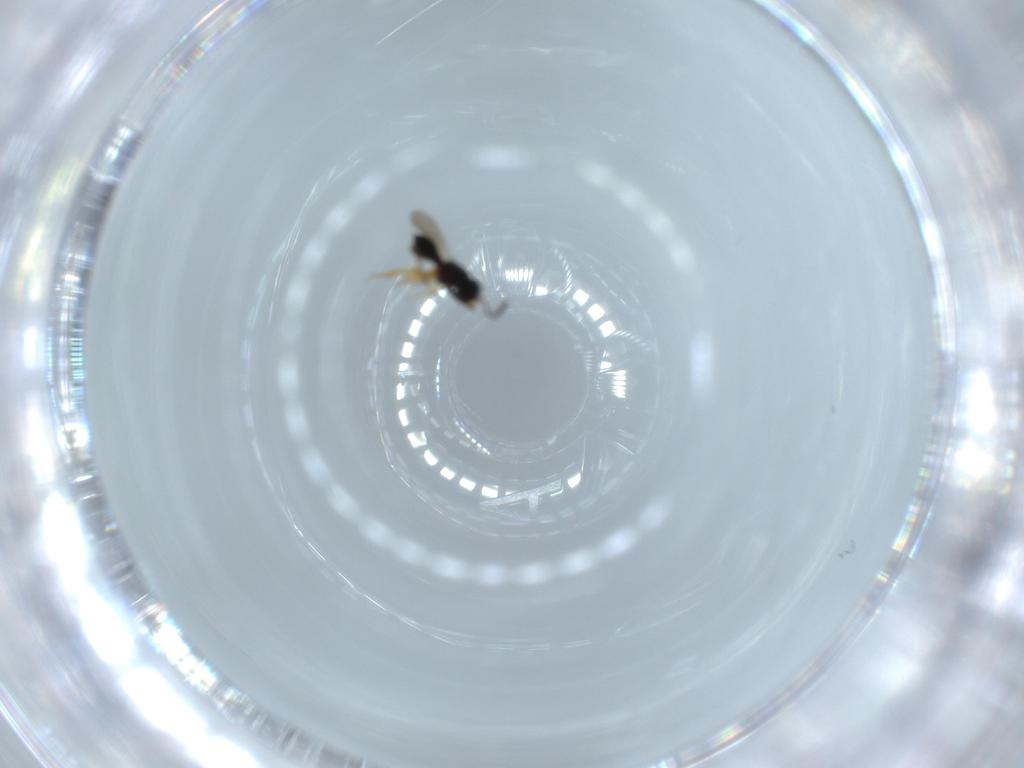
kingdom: Animalia
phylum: Arthropoda
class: Insecta
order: Hymenoptera
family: Scelionidae
